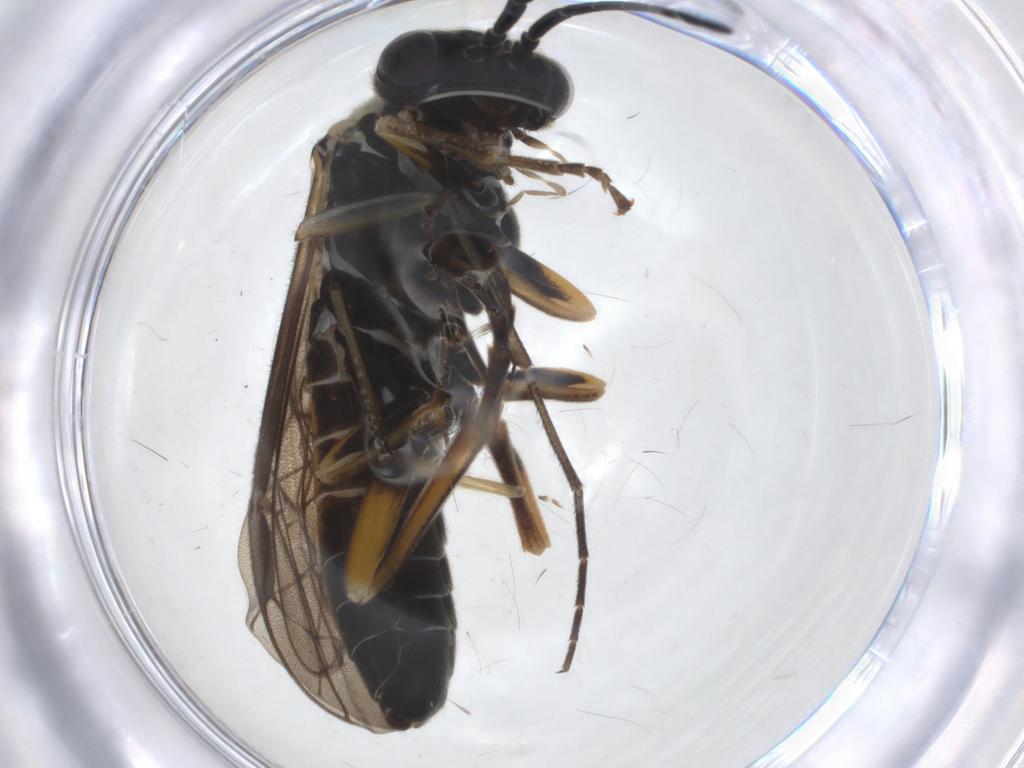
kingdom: Animalia
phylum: Arthropoda
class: Insecta
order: Hymenoptera
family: Tenthredinidae
